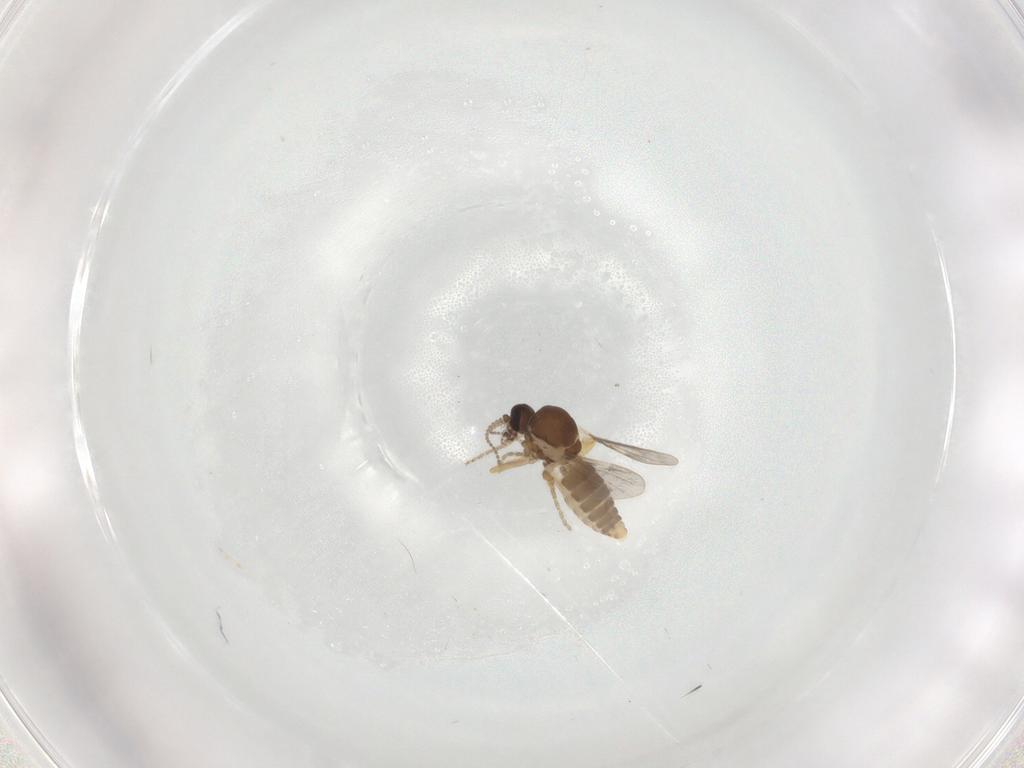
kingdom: Animalia
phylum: Arthropoda
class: Insecta
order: Diptera
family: Ceratopogonidae
